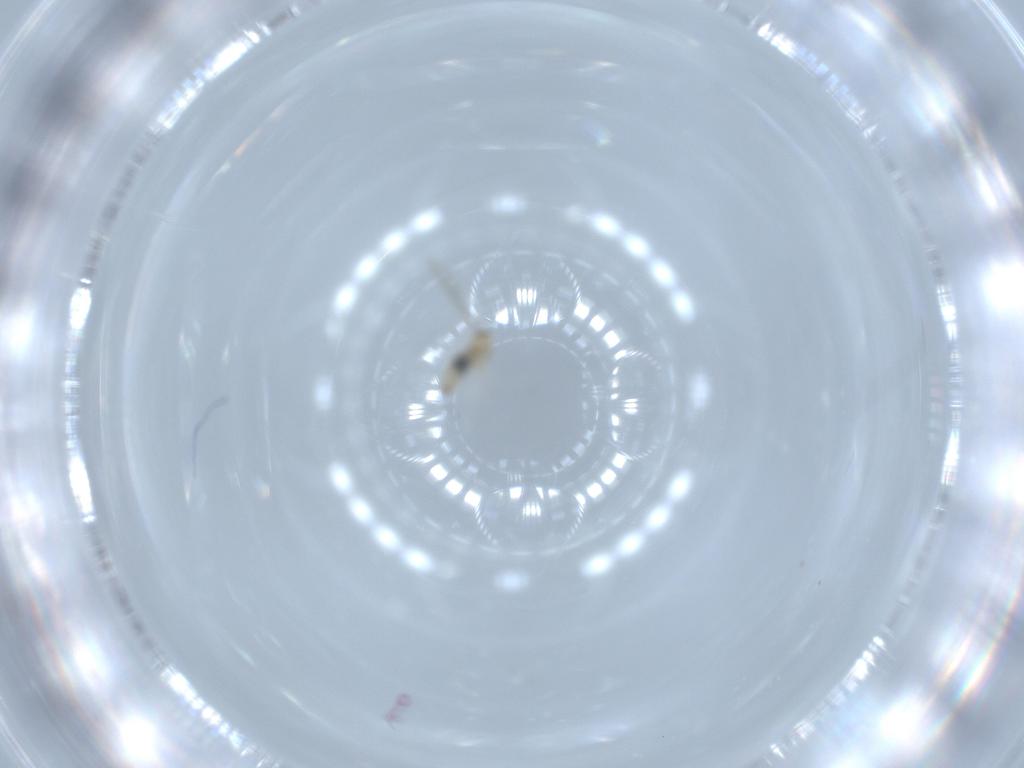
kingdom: Animalia
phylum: Arthropoda
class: Insecta
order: Diptera
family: Cecidomyiidae
